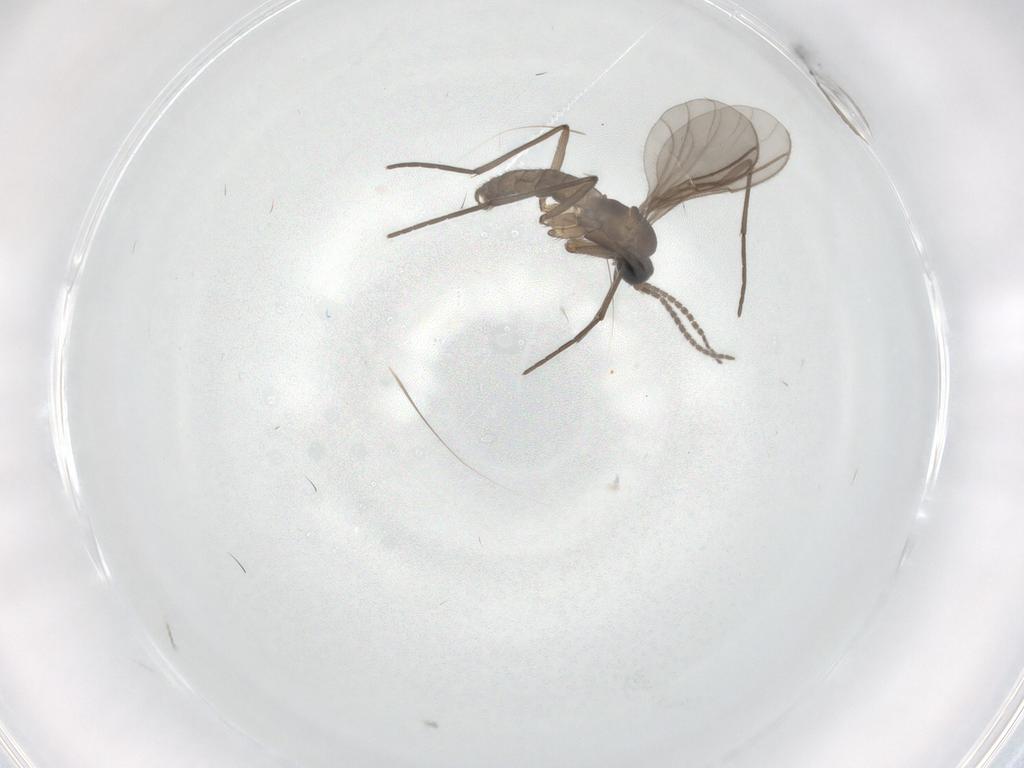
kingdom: Animalia
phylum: Arthropoda
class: Insecta
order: Diptera
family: Sciaridae
